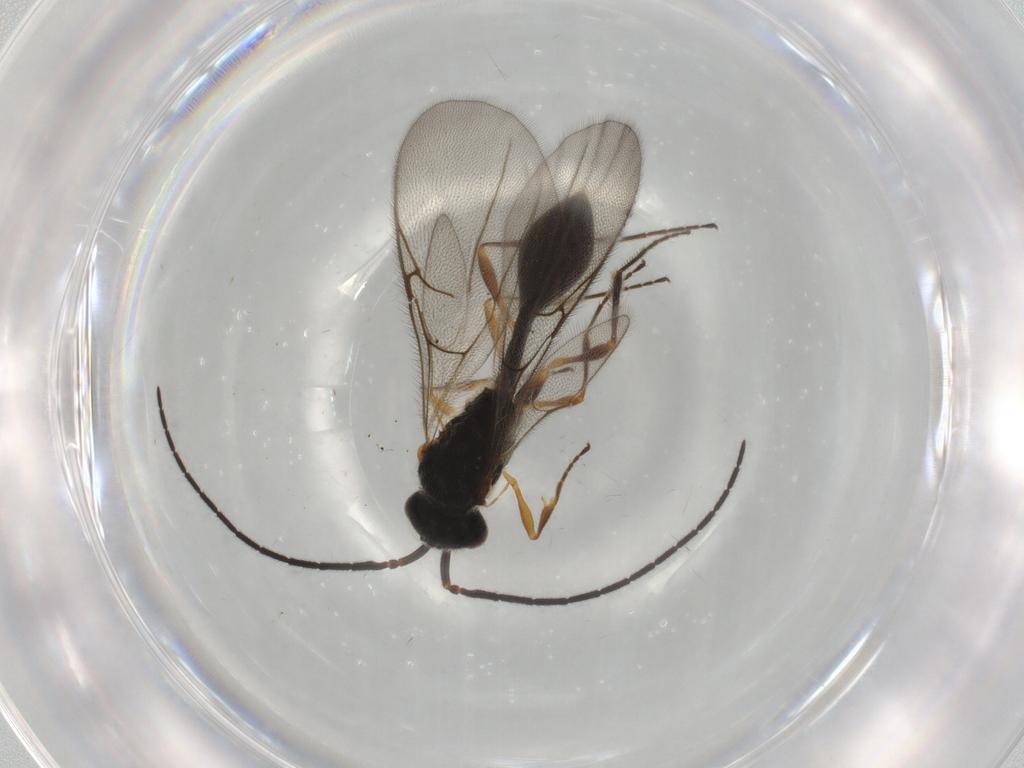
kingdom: Animalia
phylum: Arthropoda
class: Insecta
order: Hymenoptera
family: Diapriidae
